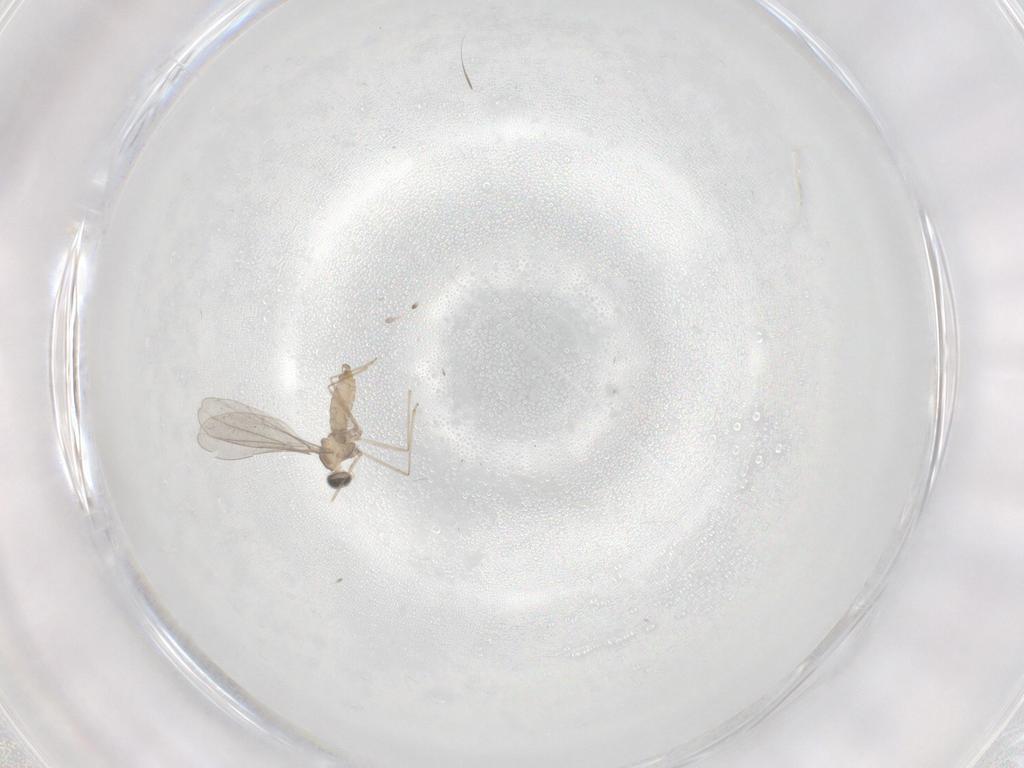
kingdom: Animalia
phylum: Arthropoda
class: Insecta
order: Diptera
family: Cecidomyiidae
